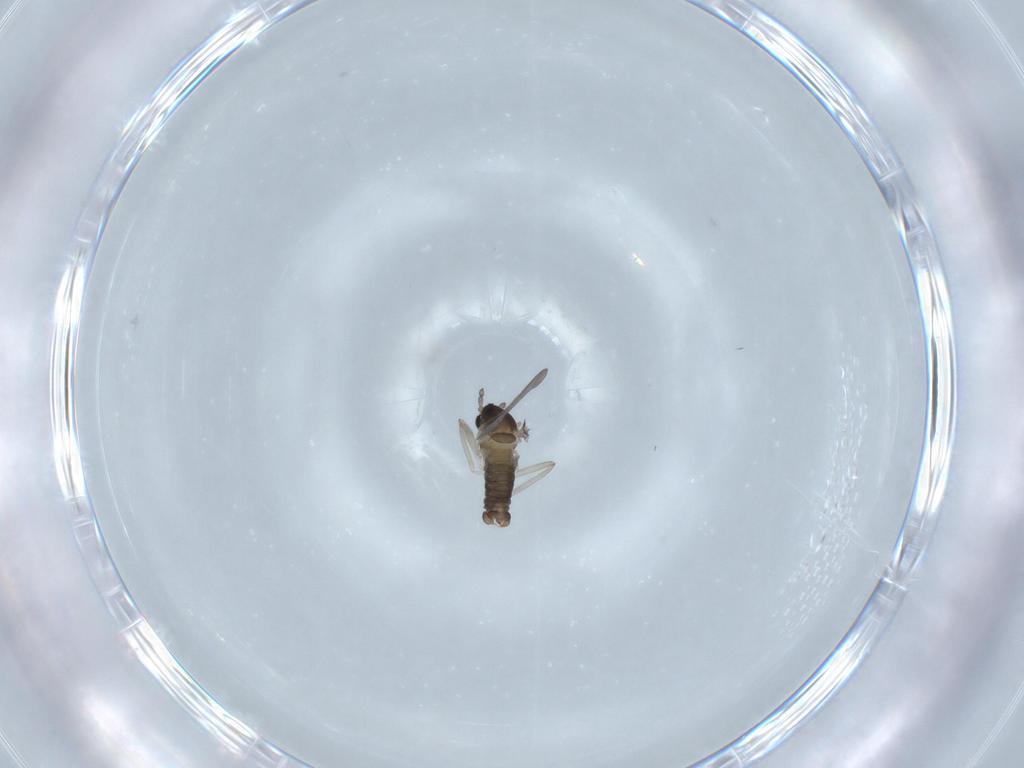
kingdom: Animalia
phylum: Arthropoda
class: Insecta
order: Diptera
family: Cecidomyiidae
